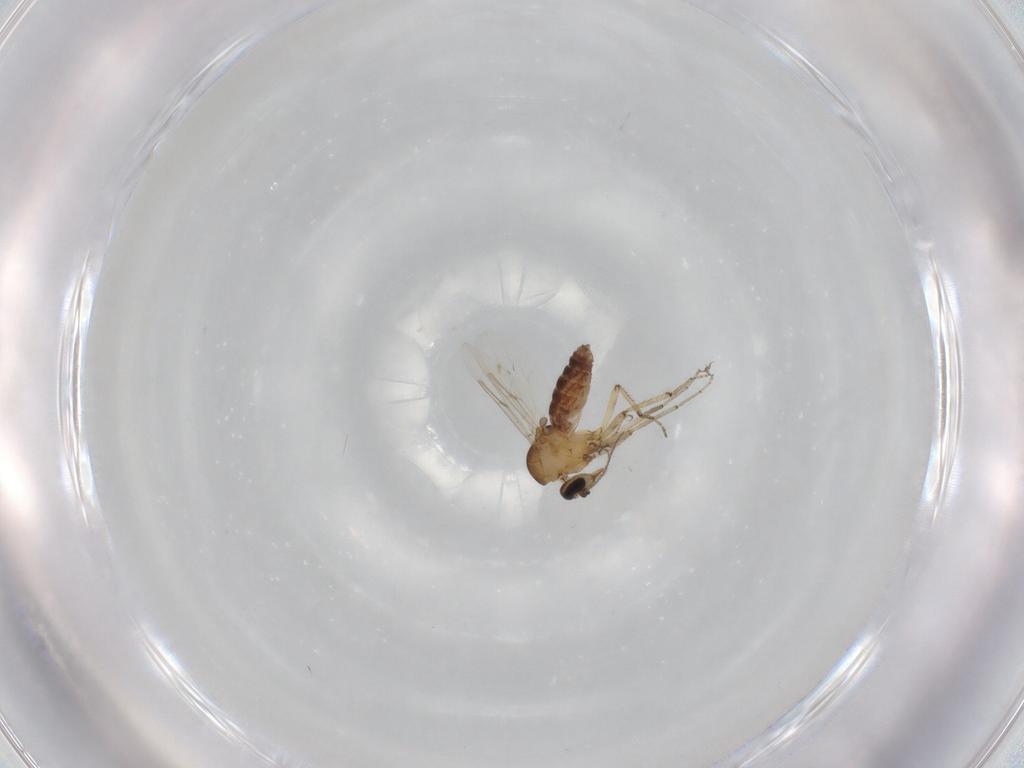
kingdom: Animalia
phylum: Arthropoda
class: Insecta
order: Diptera
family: Ceratopogonidae
